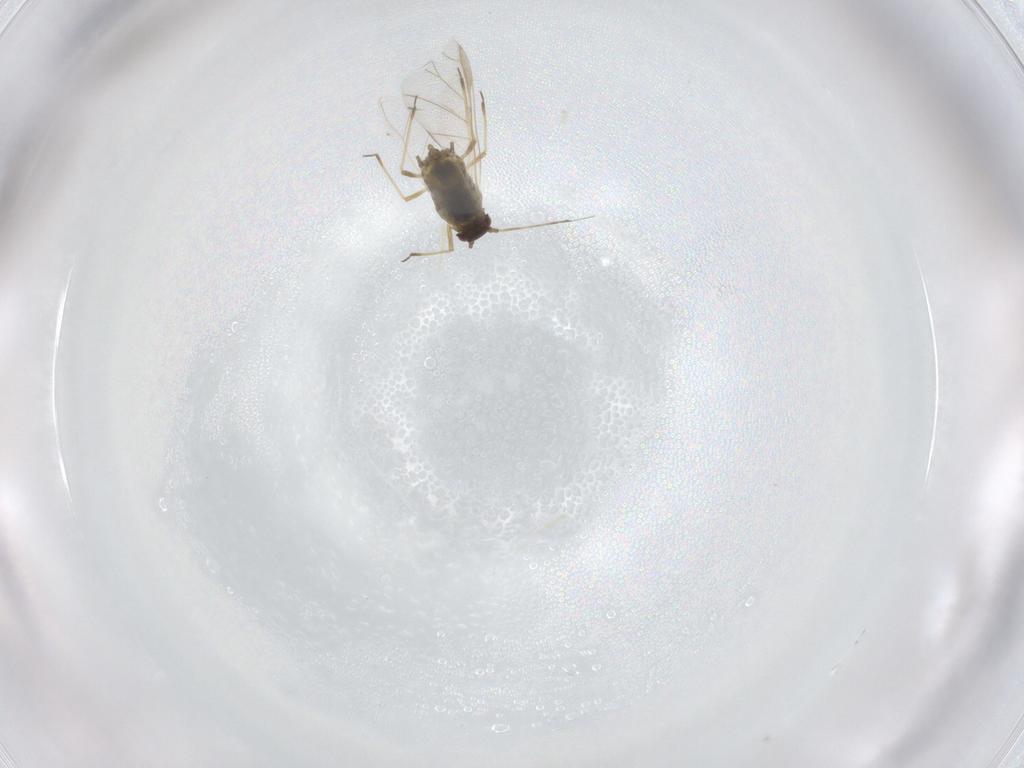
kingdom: Animalia
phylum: Arthropoda
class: Insecta
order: Hemiptera
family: Aphididae
